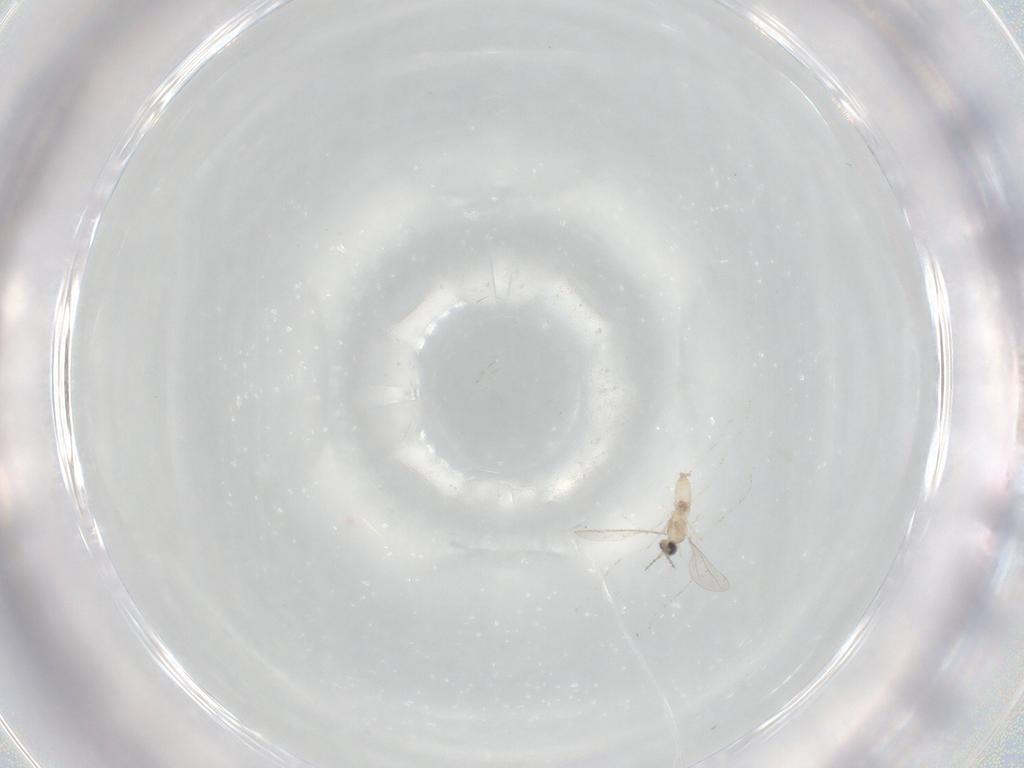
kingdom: Animalia
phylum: Arthropoda
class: Insecta
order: Diptera
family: Cecidomyiidae
